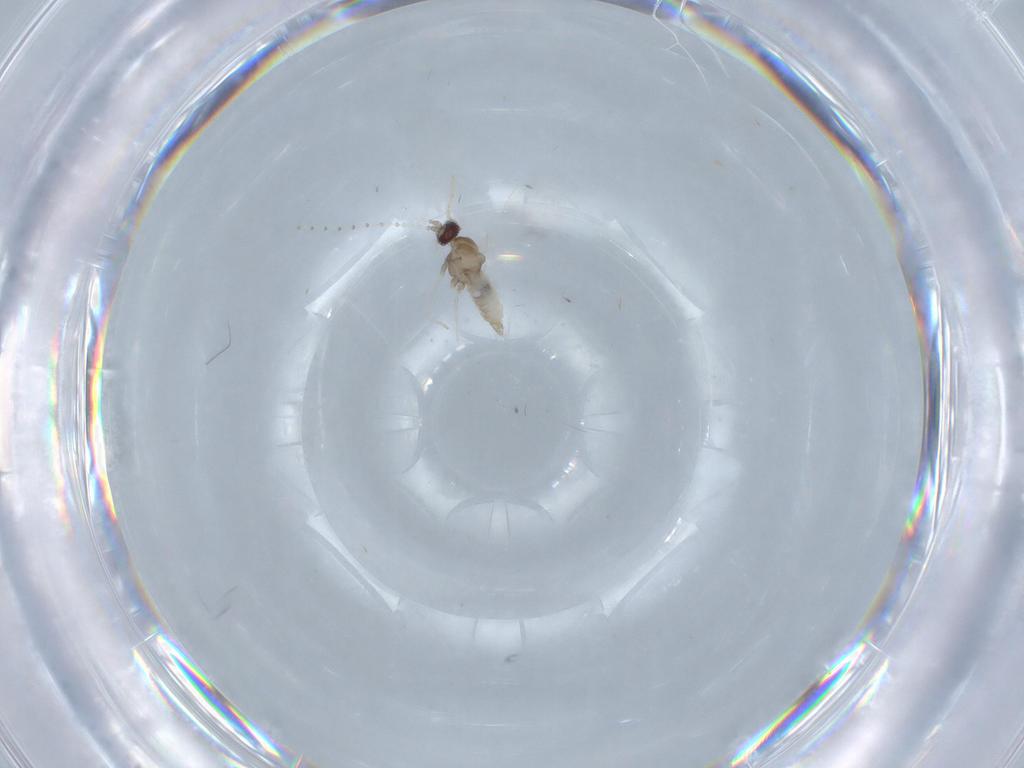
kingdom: Animalia
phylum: Arthropoda
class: Insecta
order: Diptera
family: Cecidomyiidae
